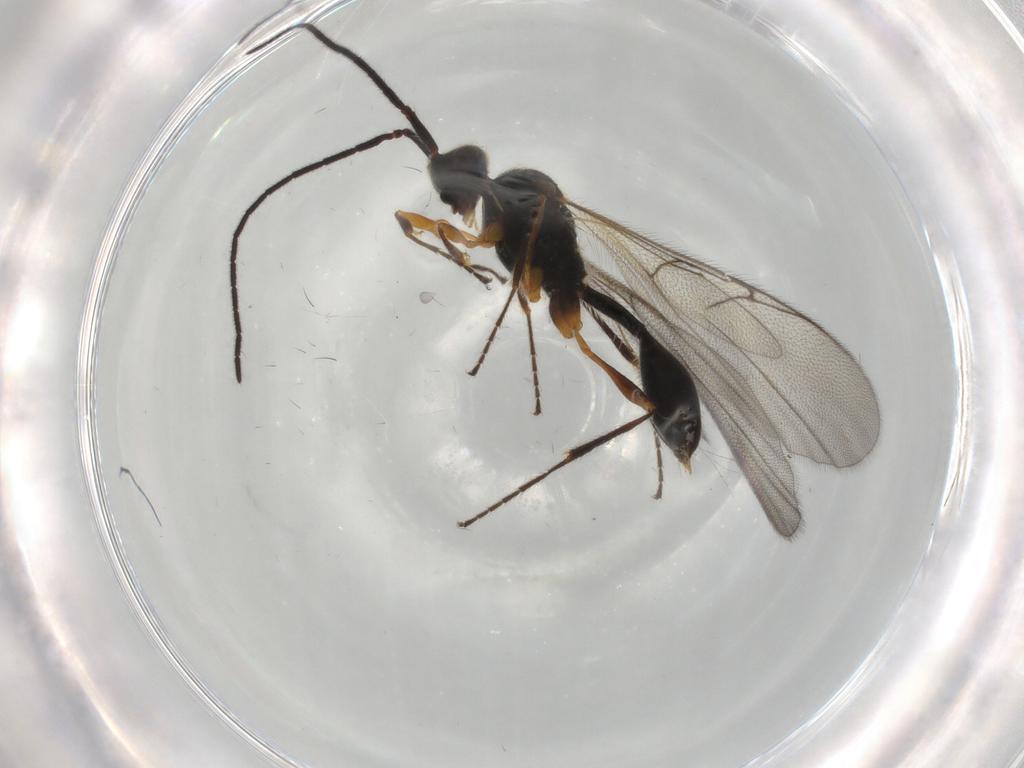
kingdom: Animalia
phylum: Arthropoda
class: Insecta
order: Hymenoptera
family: Diapriidae
